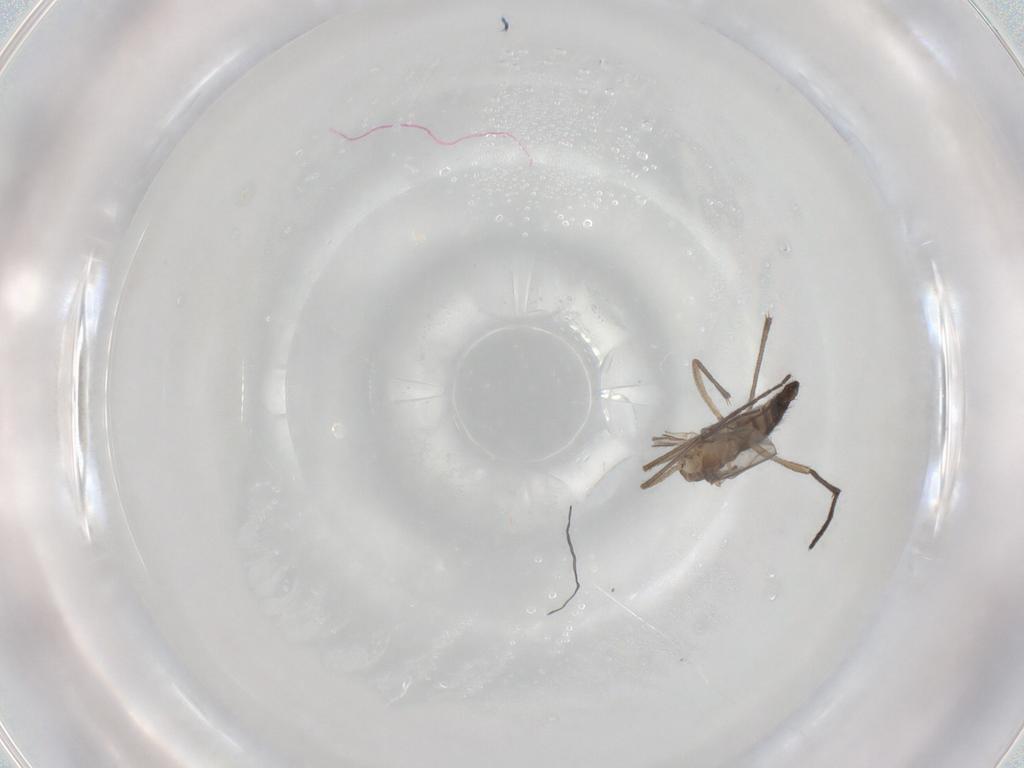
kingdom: Animalia
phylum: Arthropoda
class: Insecta
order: Diptera
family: Sciaridae
